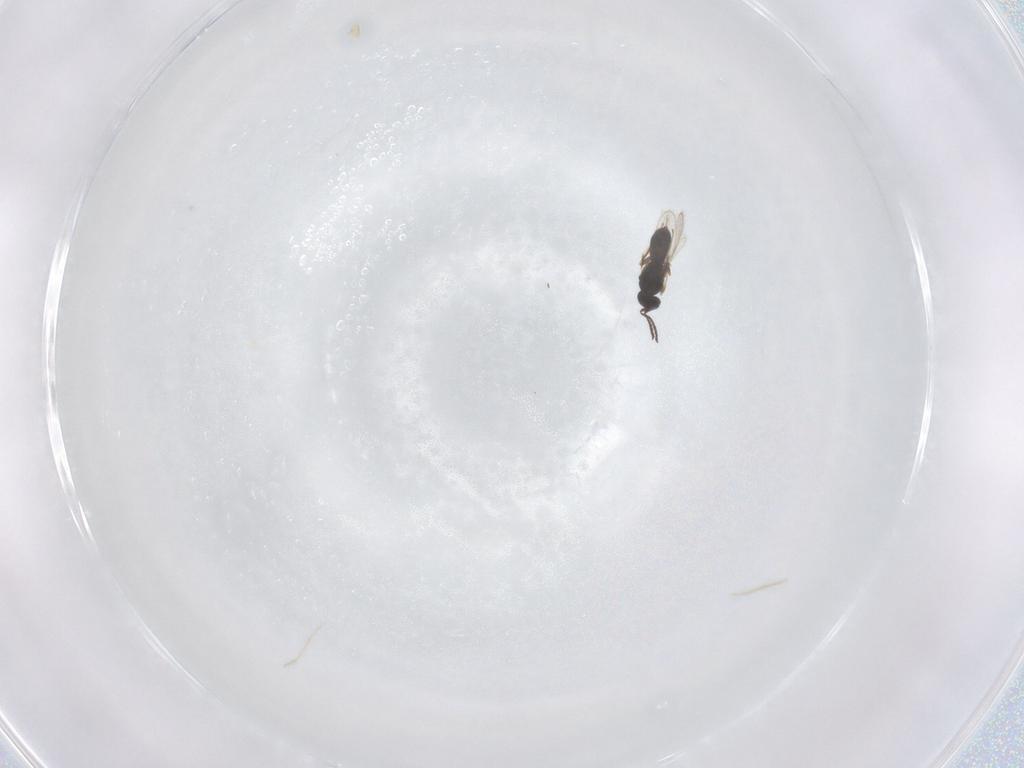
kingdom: Animalia
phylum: Arthropoda
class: Insecta
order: Hymenoptera
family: Scelionidae
